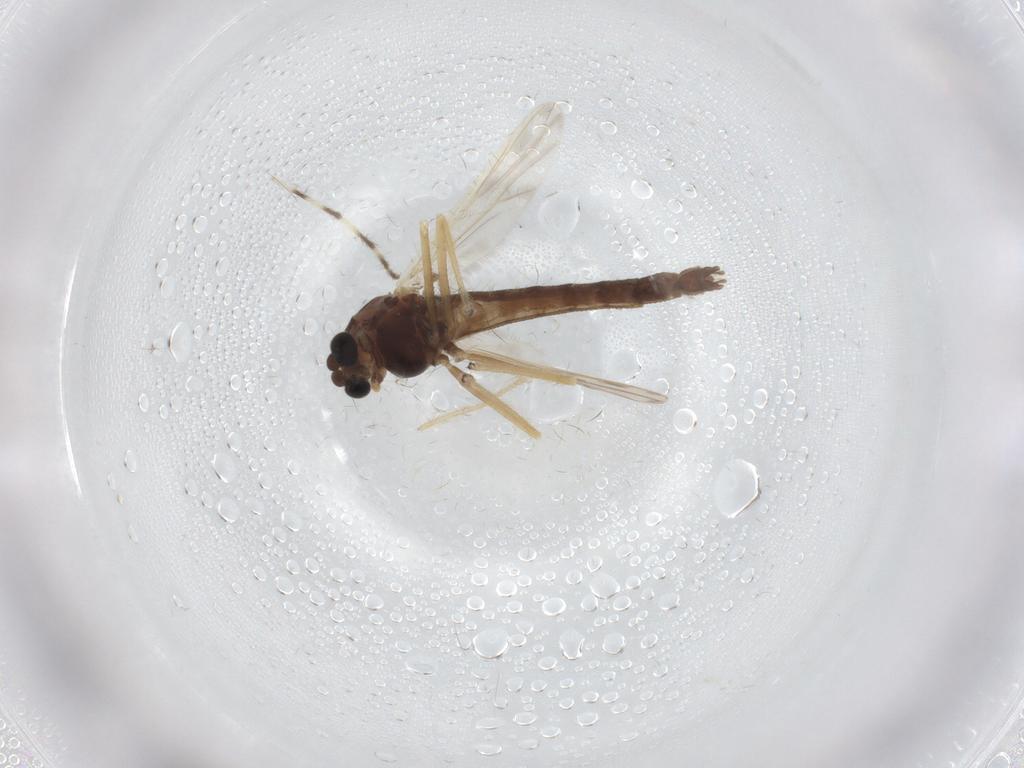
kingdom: Animalia
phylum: Arthropoda
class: Insecta
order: Diptera
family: Chironomidae
